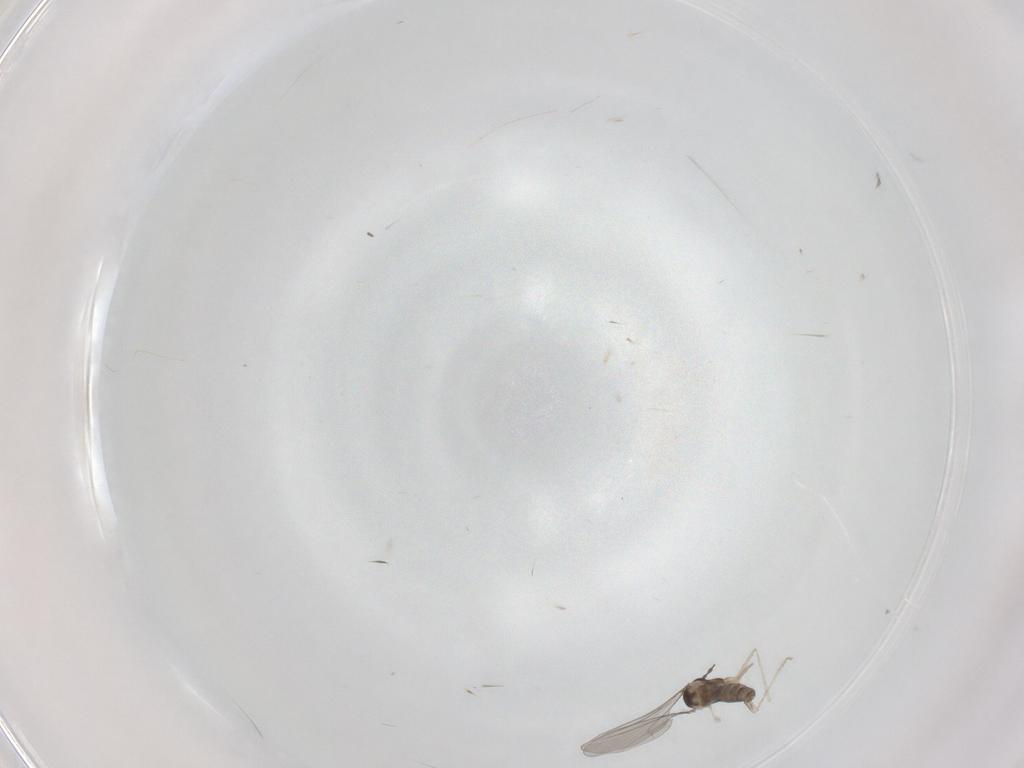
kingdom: Animalia
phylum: Arthropoda
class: Insecta
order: Diptera
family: Cecidomyiidae
